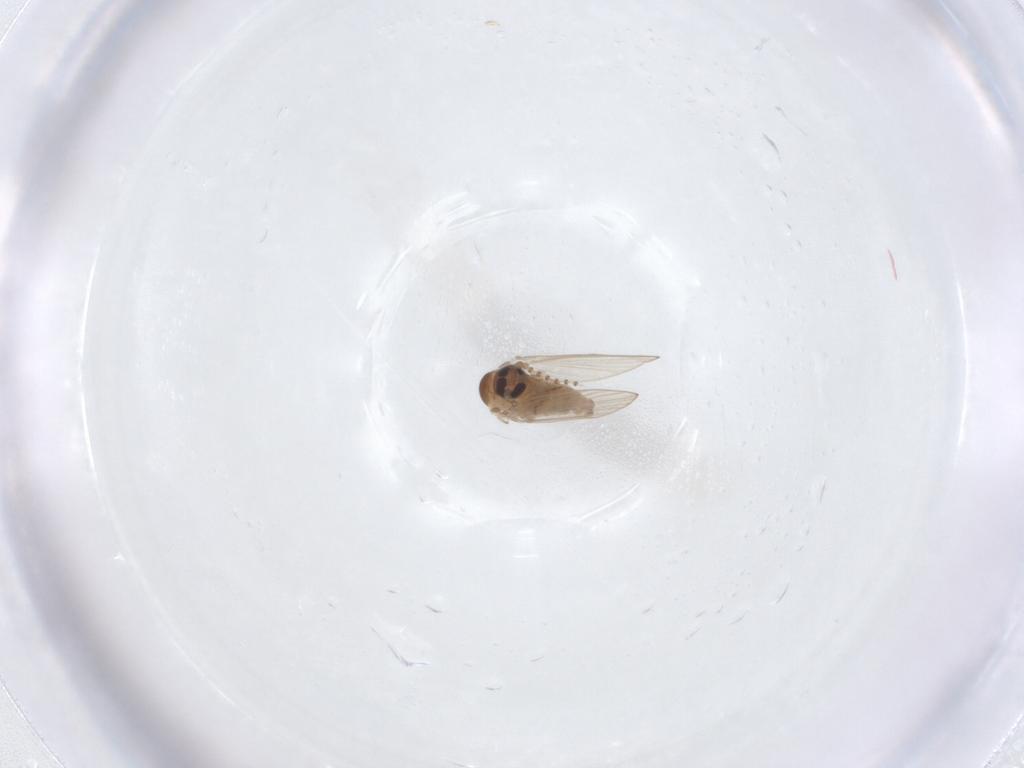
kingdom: Animalia
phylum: Arthropoda
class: Insecta
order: Diptera
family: Psychodidae
